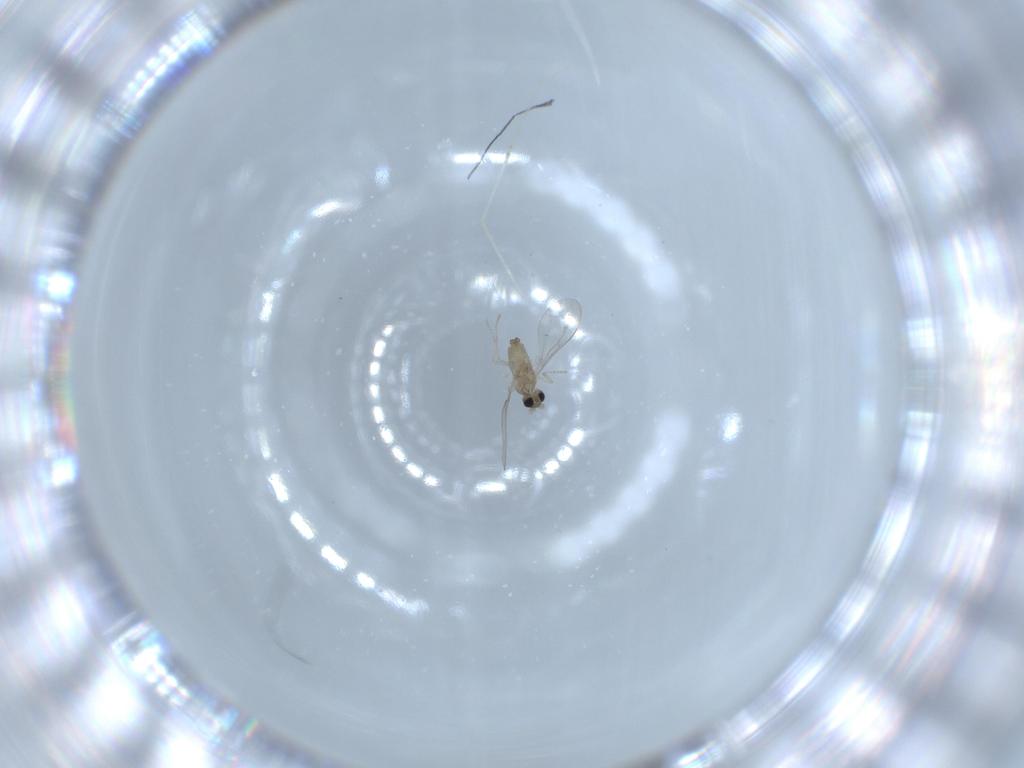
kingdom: Animalia
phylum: Arthropoda
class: Insecta
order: Diptera
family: Cecidomyiidae
